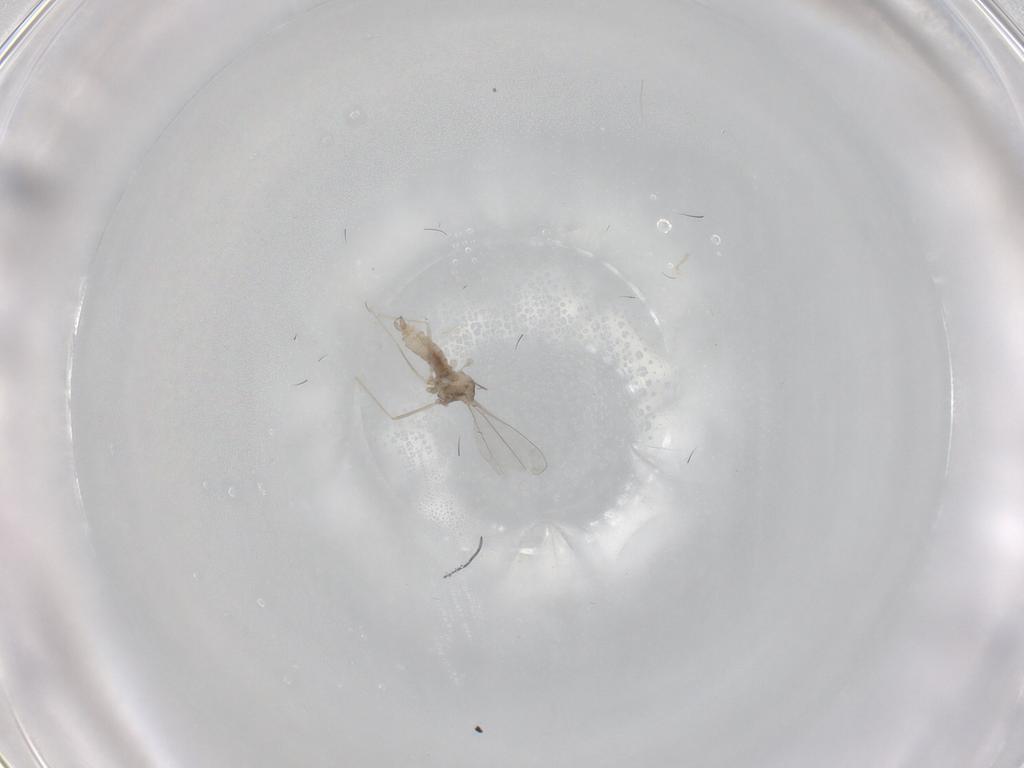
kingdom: Animalia
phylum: Arthropoda
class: Insecta
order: Diptera
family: Cecidomyiidae
